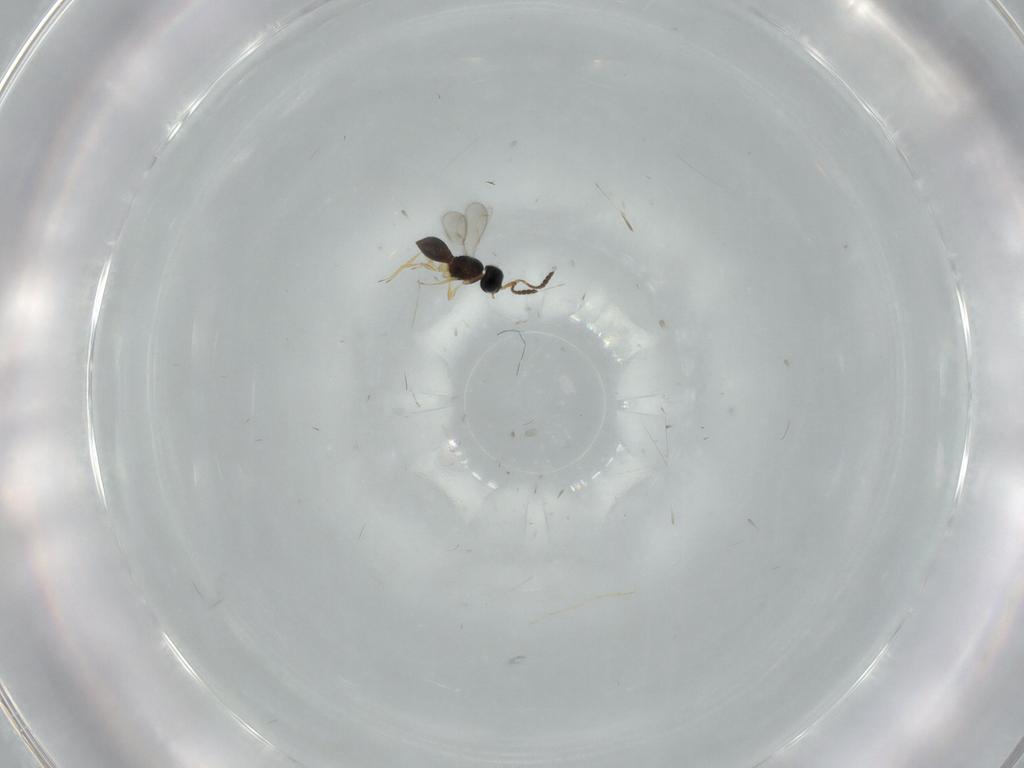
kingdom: Animalia
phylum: Arthropoda
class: Insecta
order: Hymenoptera
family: Scelionidae
